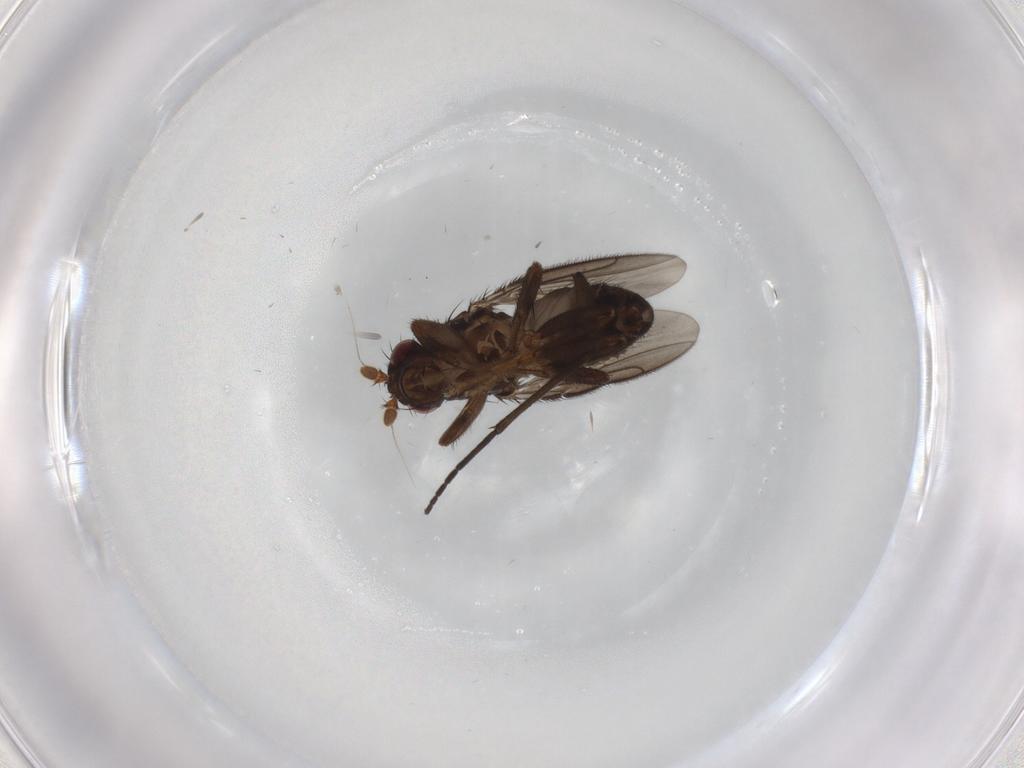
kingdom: Animalia
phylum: Arthropoda
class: Insecta
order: Diptera
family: Sphaeroceridae
